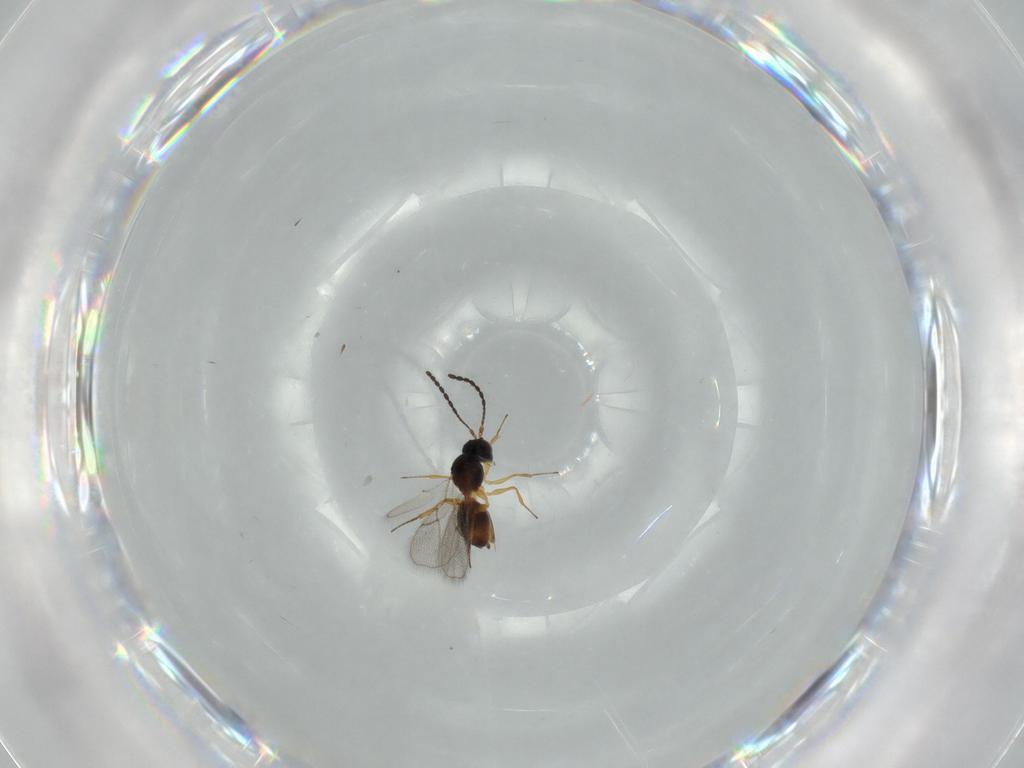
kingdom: Animalia
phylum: Arthropoda
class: Insecta
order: Hymenoptera
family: Figitidae
